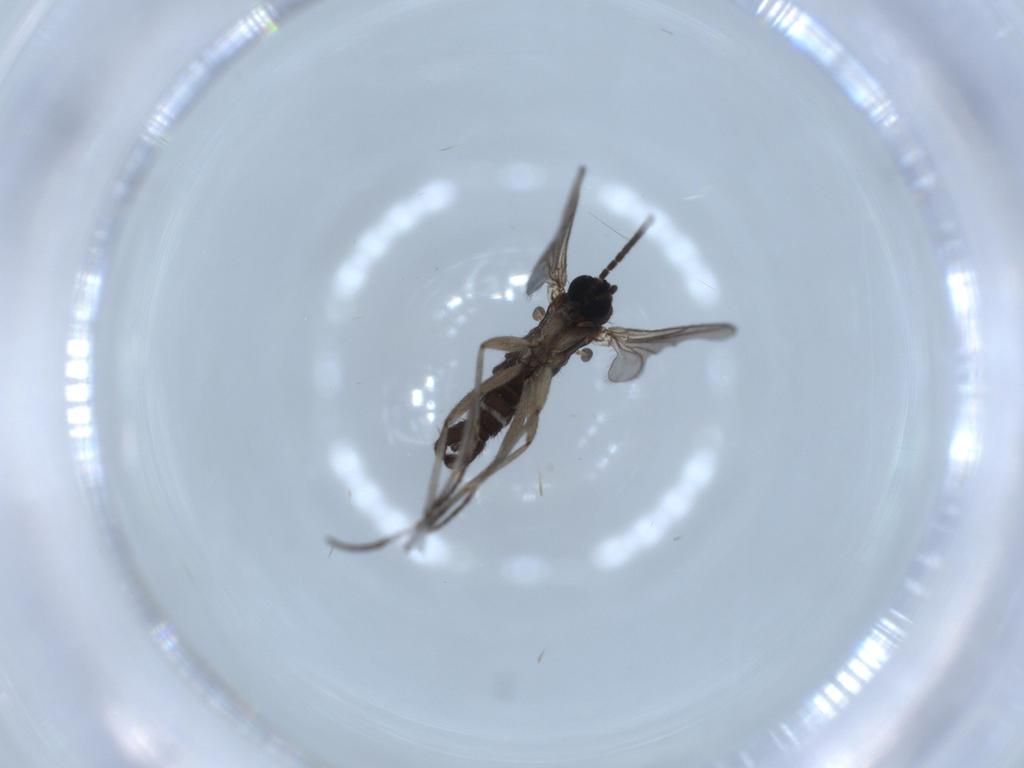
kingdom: Animalia
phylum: Arthropoda
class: Insecta
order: Diptera
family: Sciaridae
